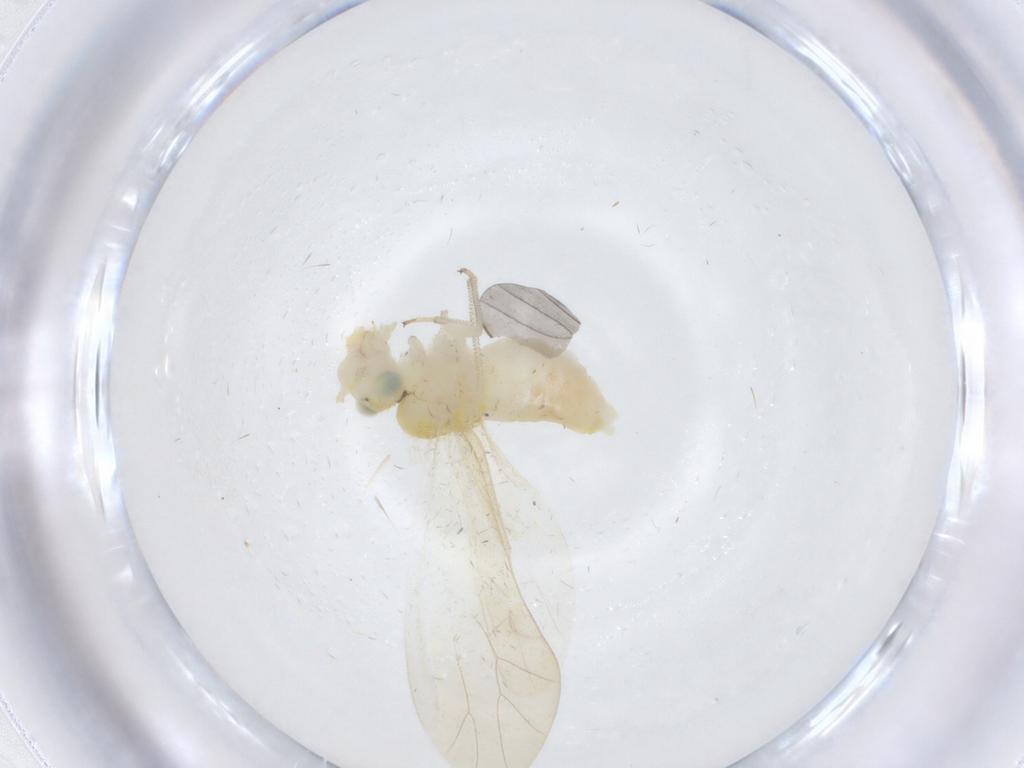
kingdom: Animalia
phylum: Arthropoda
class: Insecta
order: Psocodea
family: Caeciliusidae
